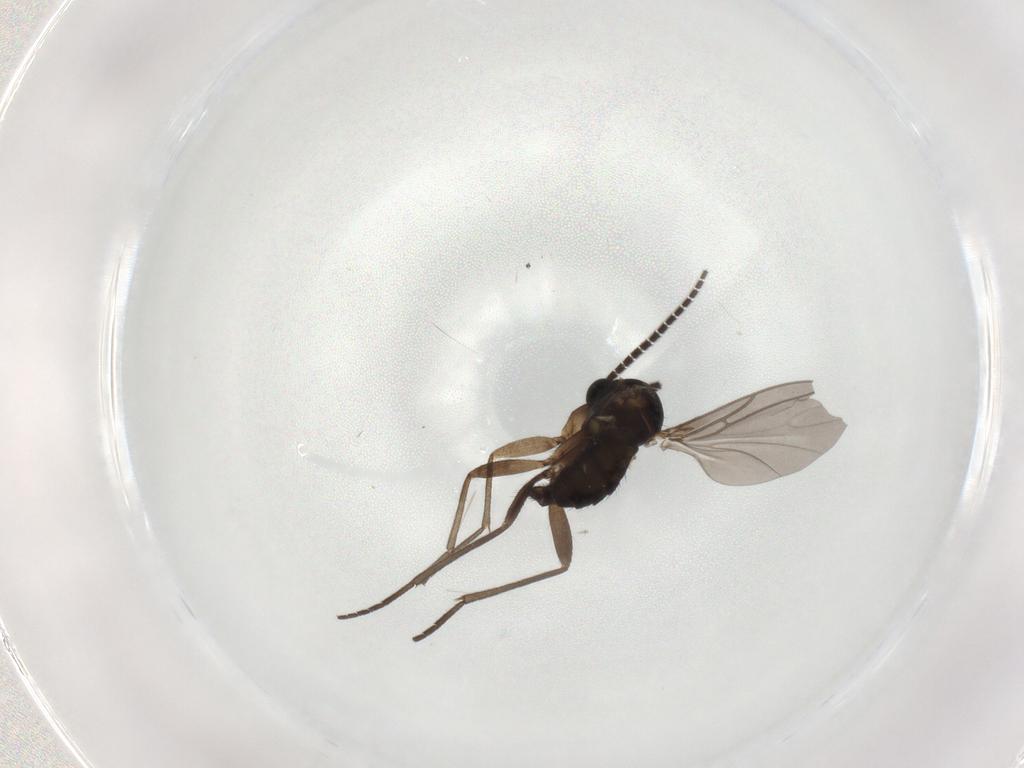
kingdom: Animalia
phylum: Arthropoda
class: Insecta
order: Diptera
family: Sciaridae
